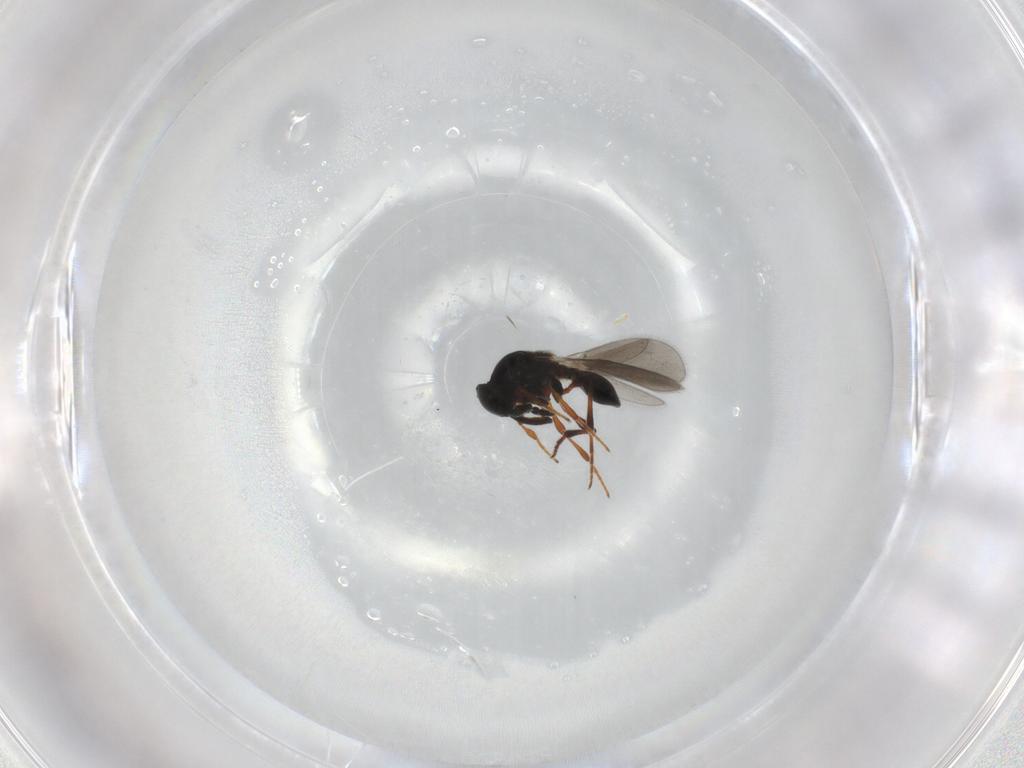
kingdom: Animalia
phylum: Arthropoda
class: Insecta
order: Hymenoptera
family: Platygastridae
